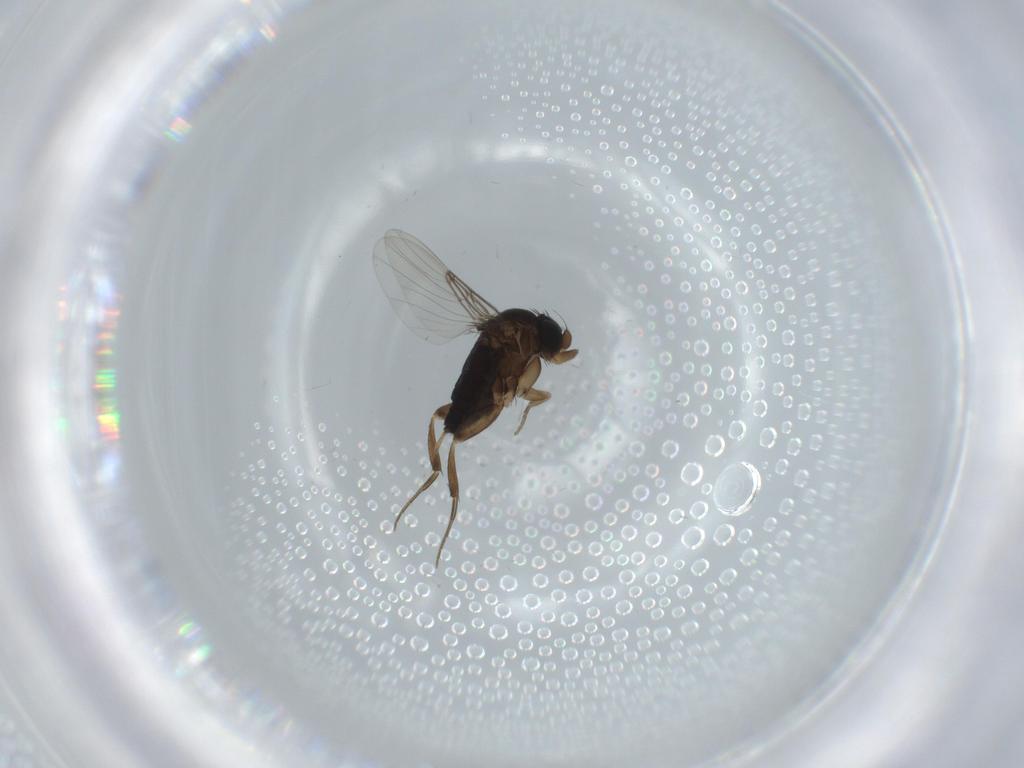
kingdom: Animalia
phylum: Arthropoda
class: Insecta
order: Diptera
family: Phoridae
